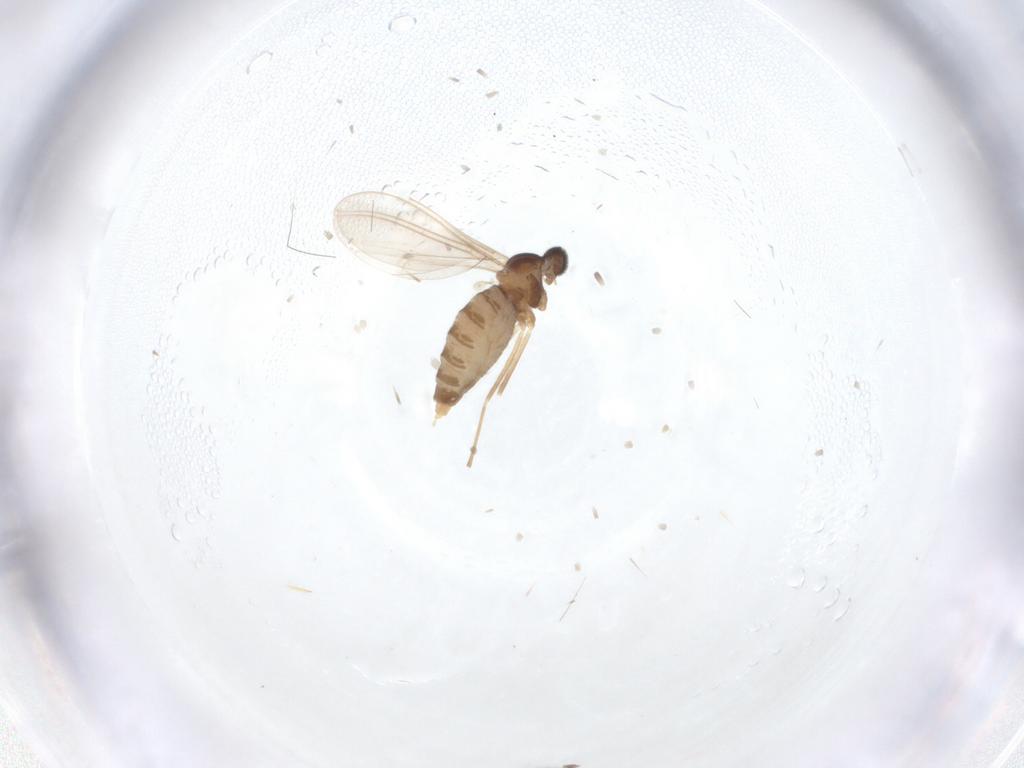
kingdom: Animalia
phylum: Arthropoda
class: Insecta
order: Diptera
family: Cecidomyiidae
